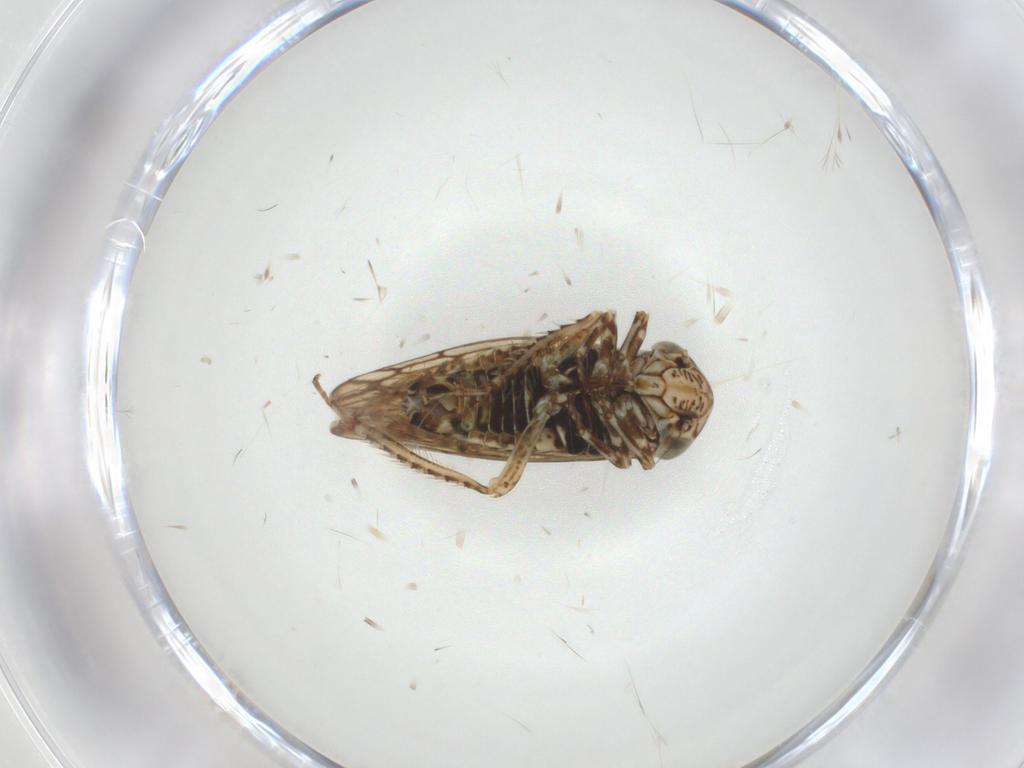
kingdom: Animalia
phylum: Arthropoda
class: Insecta
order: Hemiptera
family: Cicadellidae
